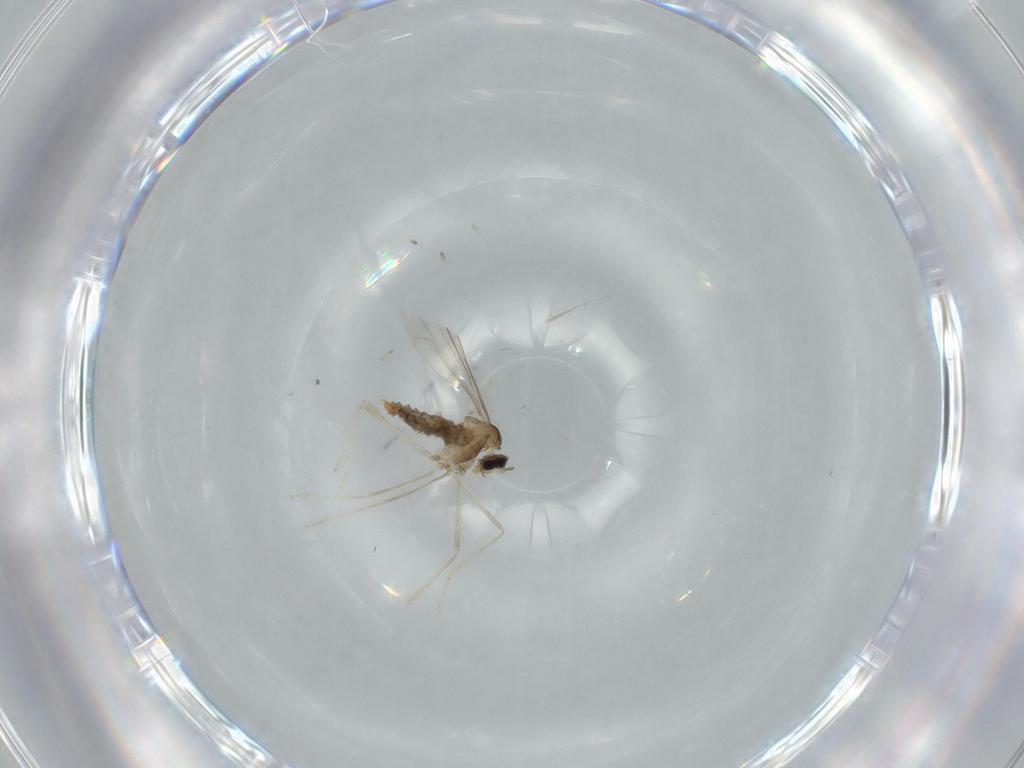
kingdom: Animalia
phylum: Arthropoda
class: Insecta
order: Diptera
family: Cecidomyiidae
